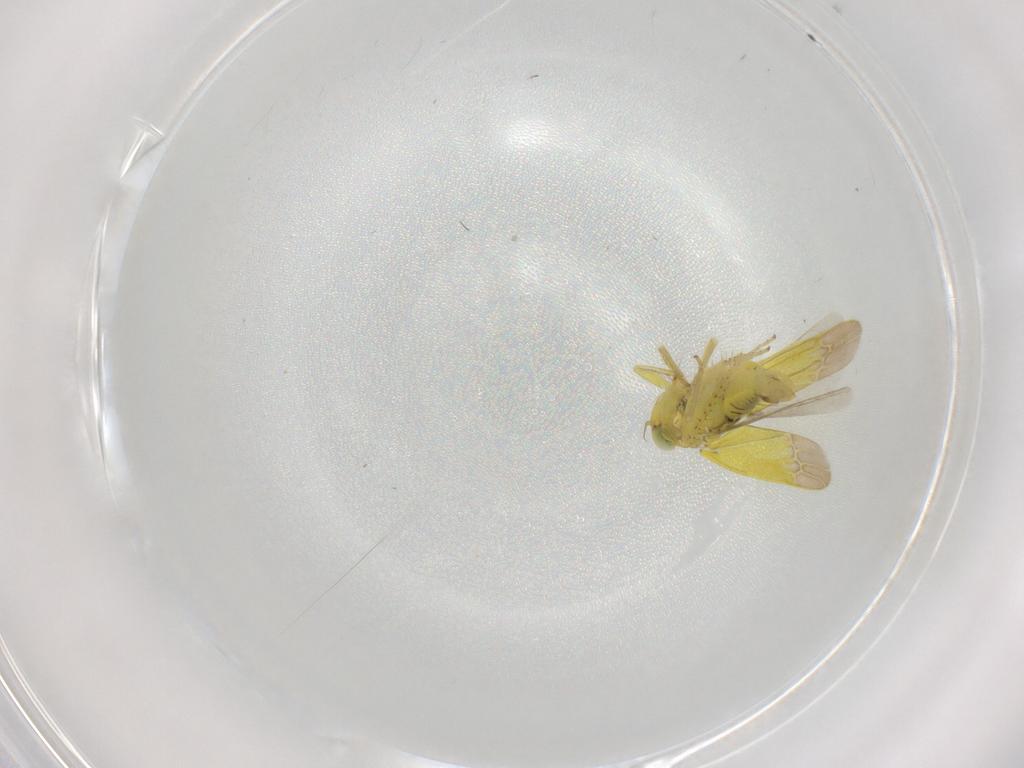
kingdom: Animalia
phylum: Arthropoda
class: Insecta
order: Hemiptera
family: Cicadellidae
